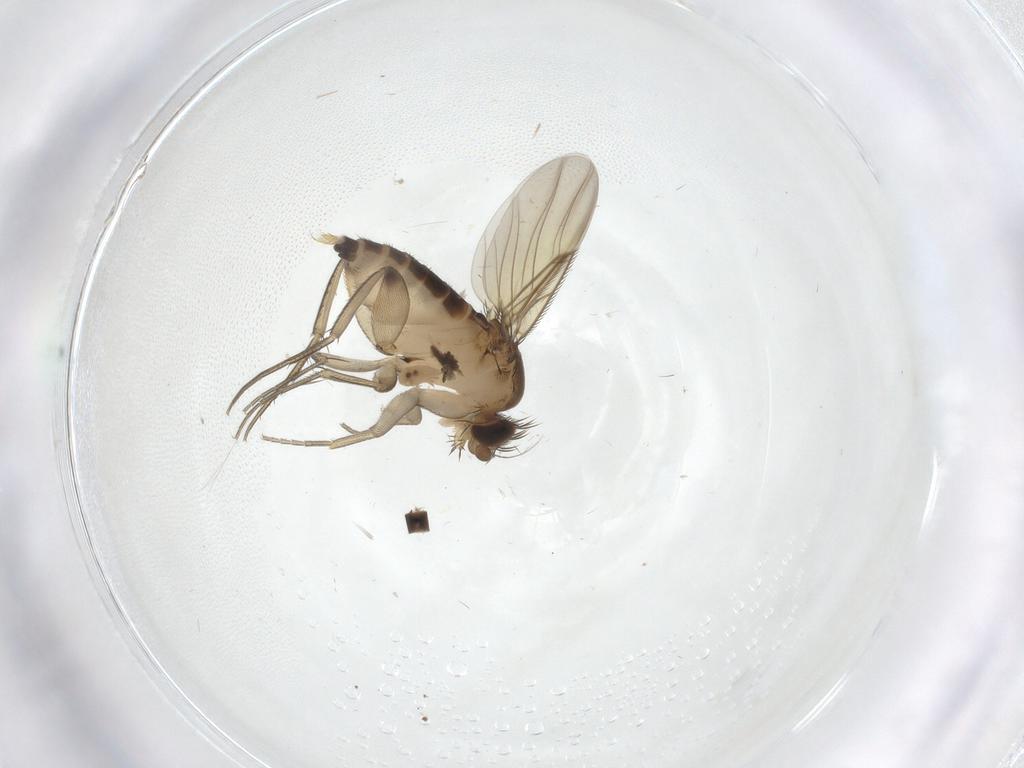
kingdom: Animalia
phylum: Arthropoda
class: Insecta
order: Diptera
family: Phoridae
